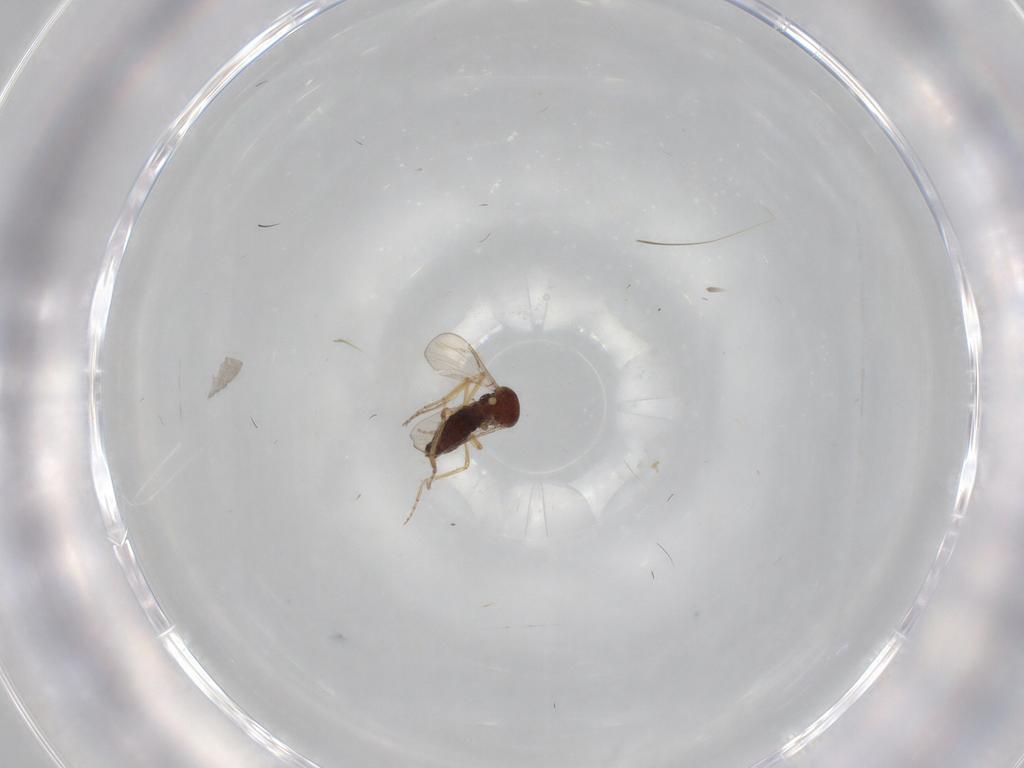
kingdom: Animalia
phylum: Arthropoda
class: Insecta
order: Diptera
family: Ceratopogonidae
